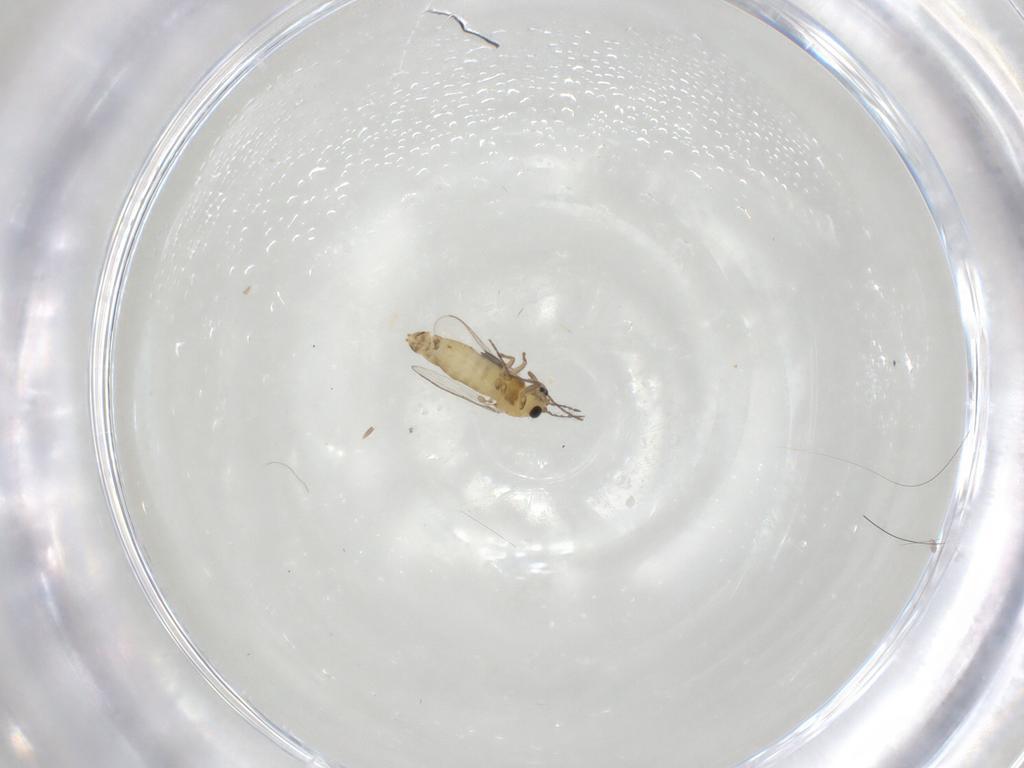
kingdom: Animalia
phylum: Arthropoda
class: Insecta
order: Diptera
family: Chironomidae
